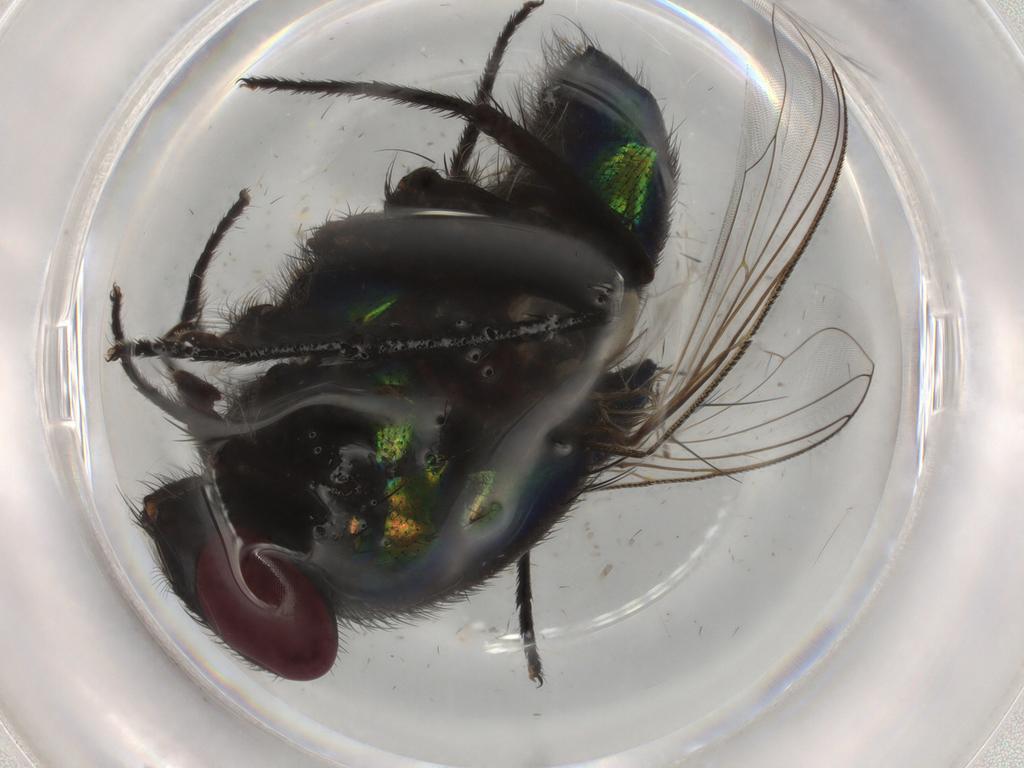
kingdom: Animalia
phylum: Arthropoda
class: Insecta
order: Diptera
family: Muscidae
